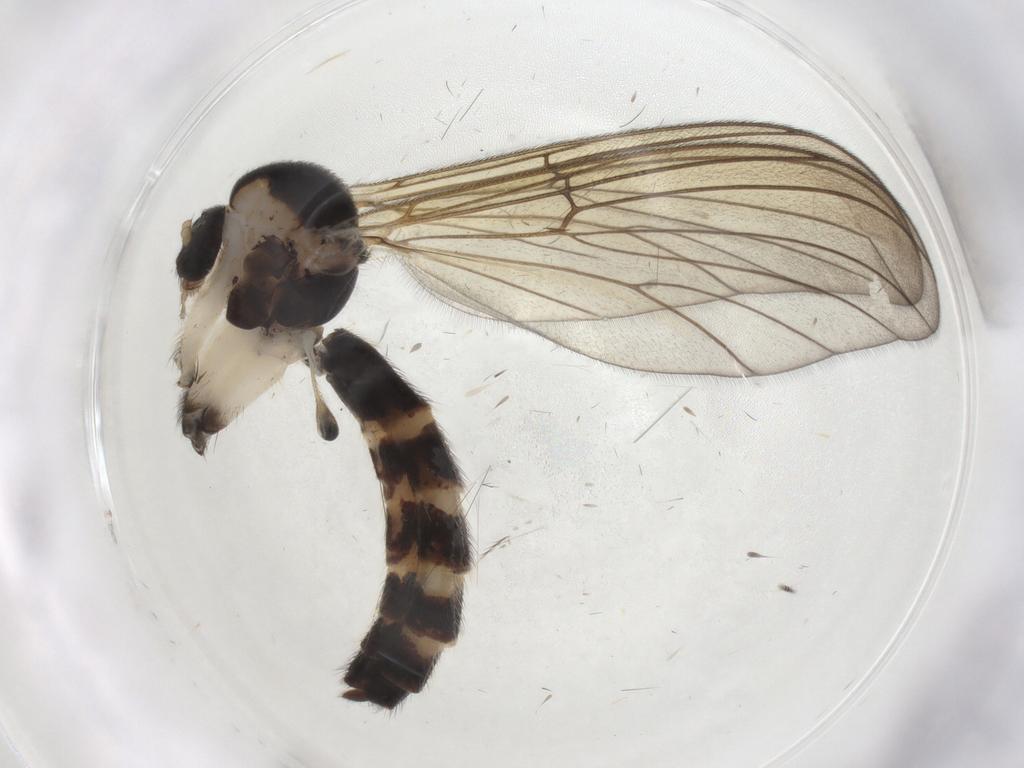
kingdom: Animalia
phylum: Arthropoda
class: Insecta
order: Diptera
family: Mycetophilidae
